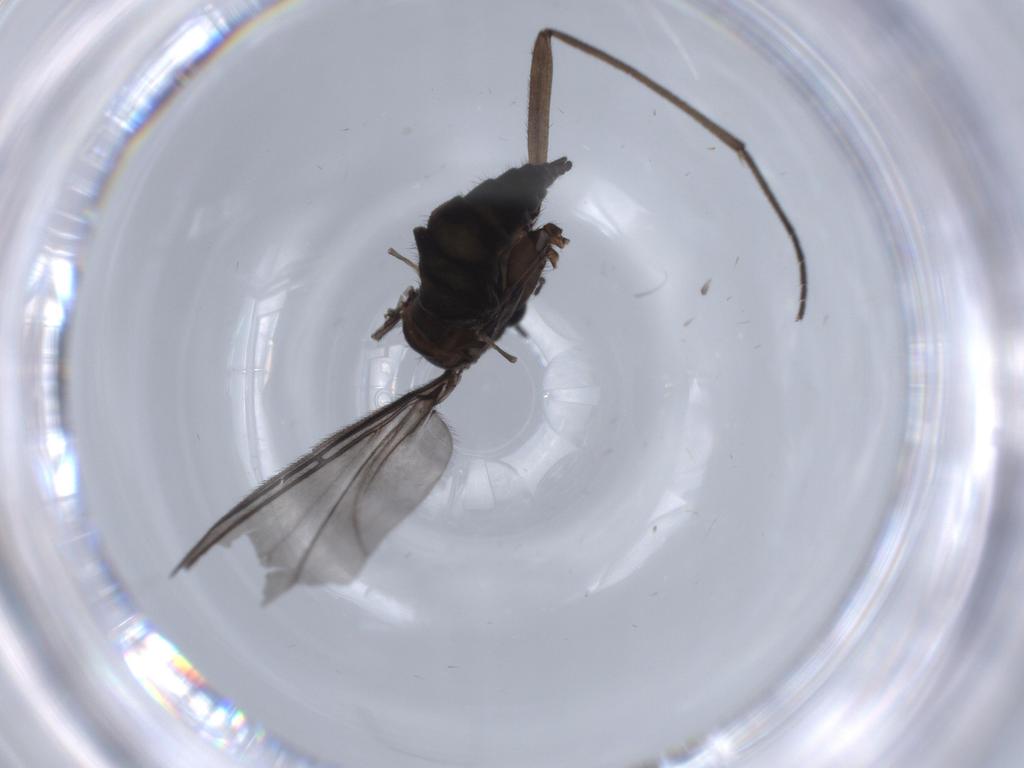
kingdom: Animalia
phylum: Arthropoda
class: Insecta
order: Diptera
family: Sciaridae
